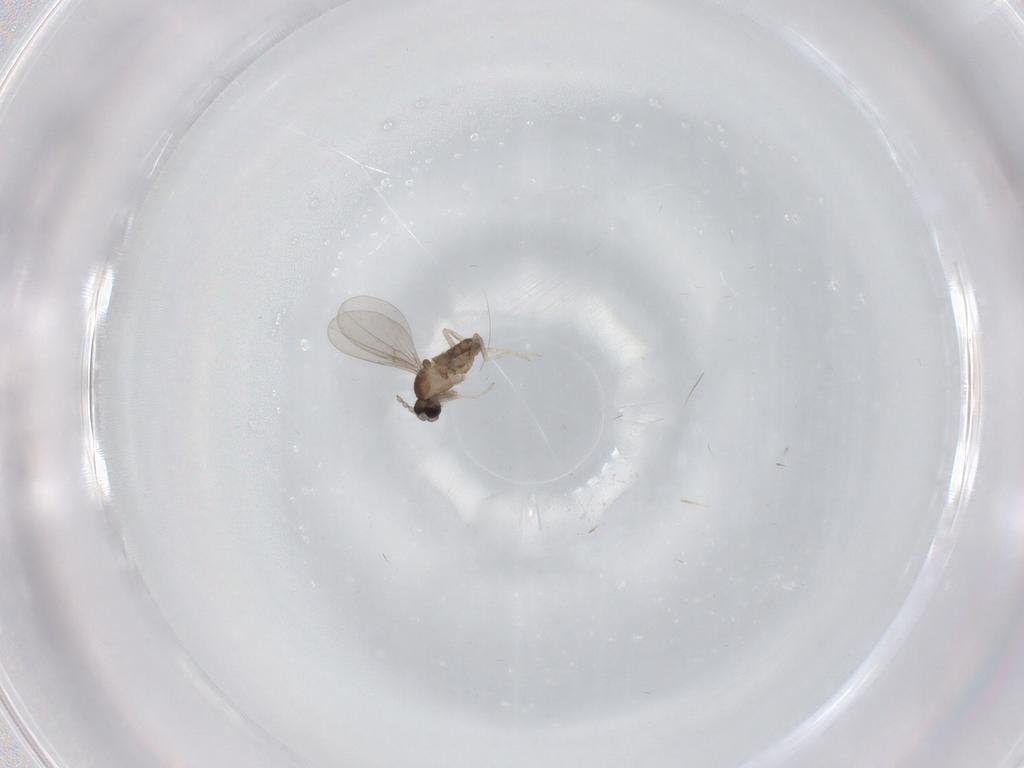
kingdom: Animalia
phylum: Arthropoda
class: Insecta
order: Diptera
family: Cecidomyiidae
